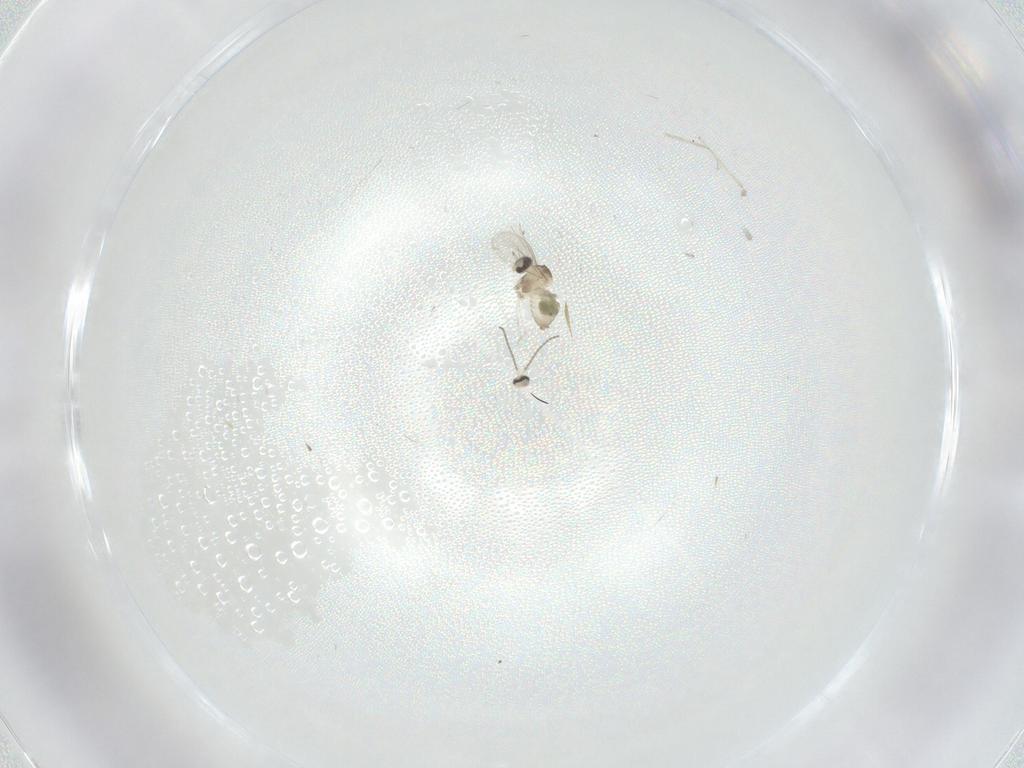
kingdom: Animalia
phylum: Arthropoda
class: Insecta
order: Diptera
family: Cecidomyiidae
